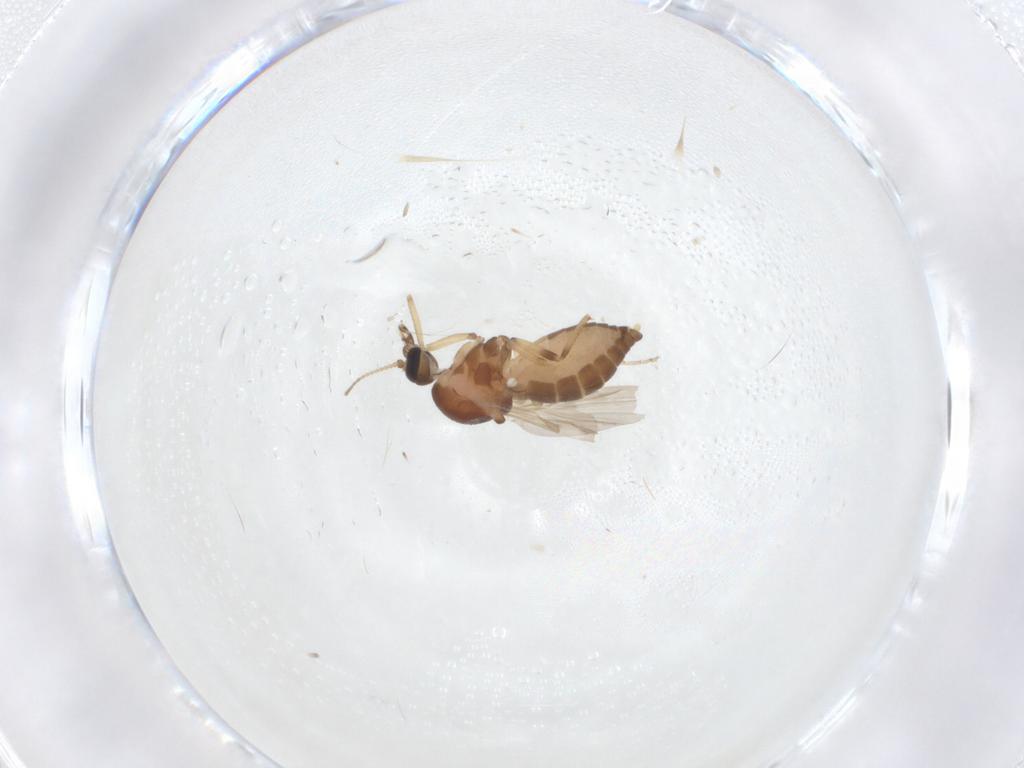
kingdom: Animalia
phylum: Arthropoda
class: Insecta
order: Diptera
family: Ceratopogonidae
